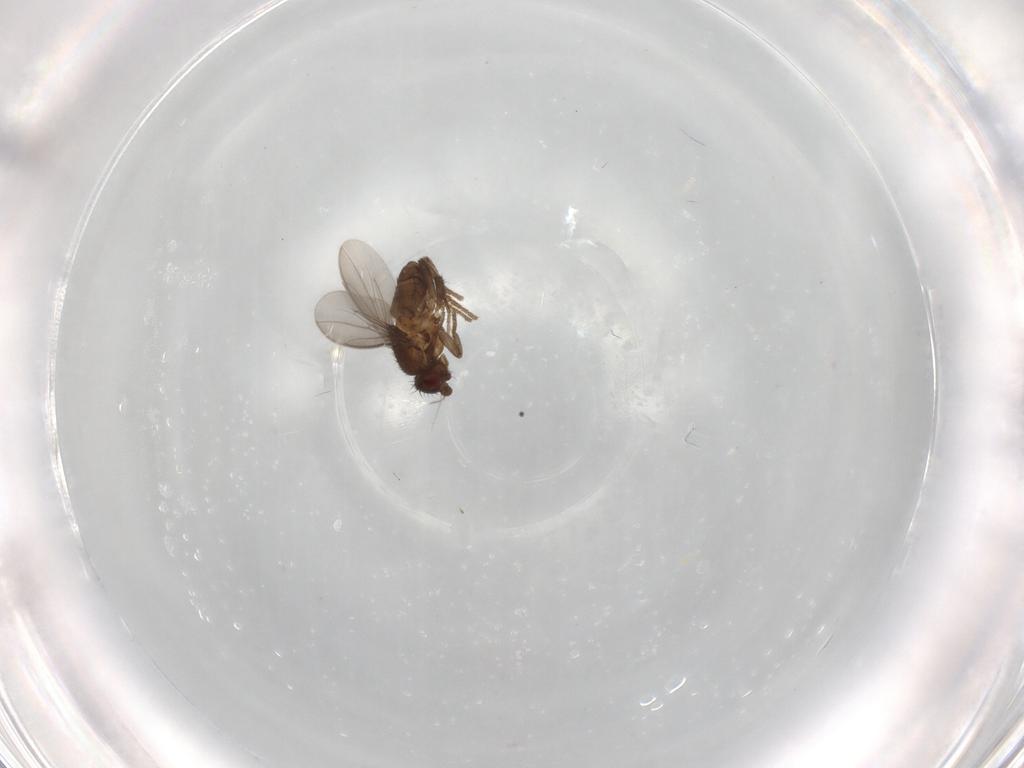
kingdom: Animalia
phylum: Arthropoda
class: Insecta
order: Diptera
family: Sphaeroceridae
